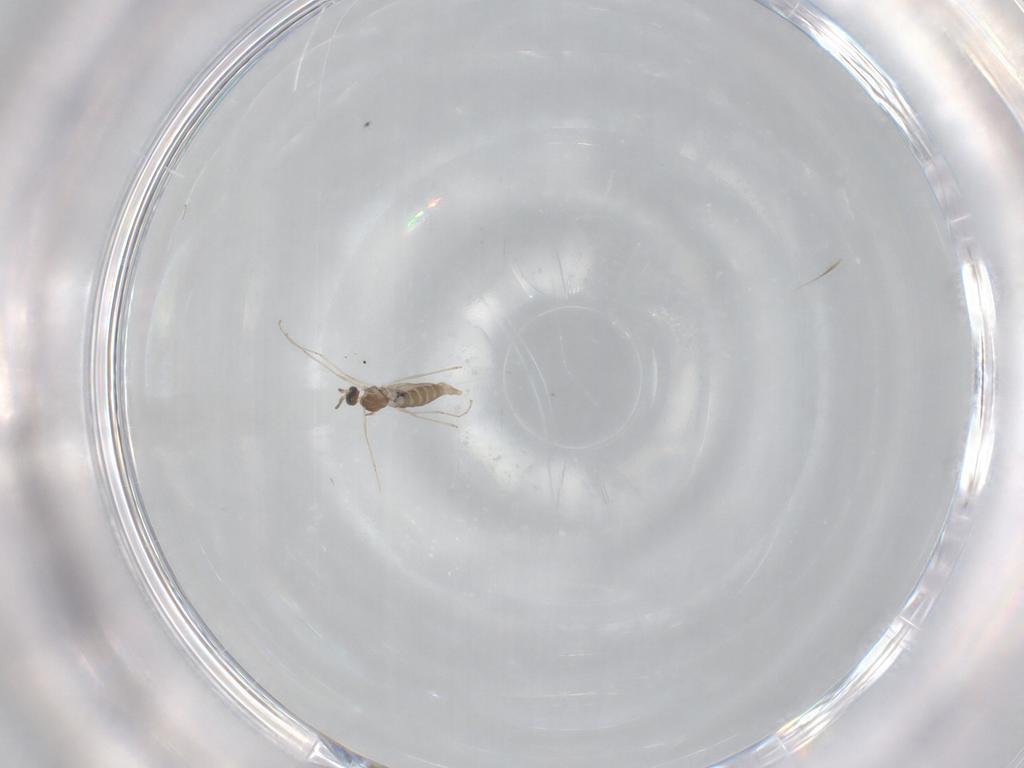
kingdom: Animalia
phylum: Arthropoda
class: Insecta
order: Diptera
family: Chironomidae
